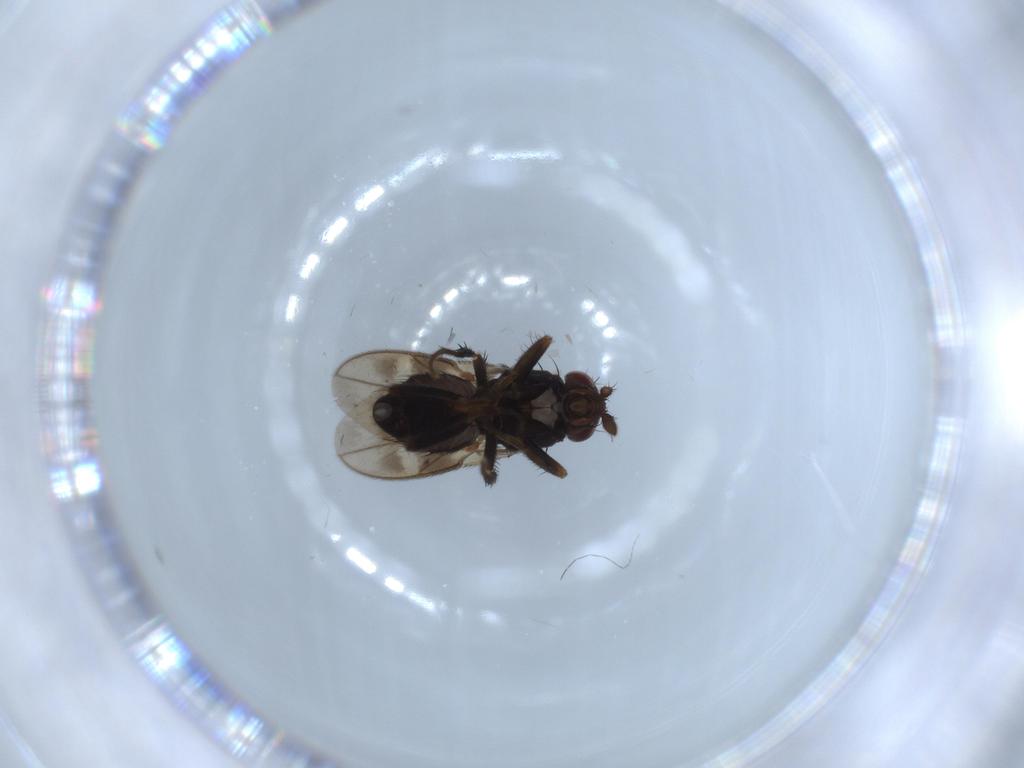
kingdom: Animalia
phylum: Arthropoda
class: Insecta
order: Diptera
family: Sphaeroceridae
